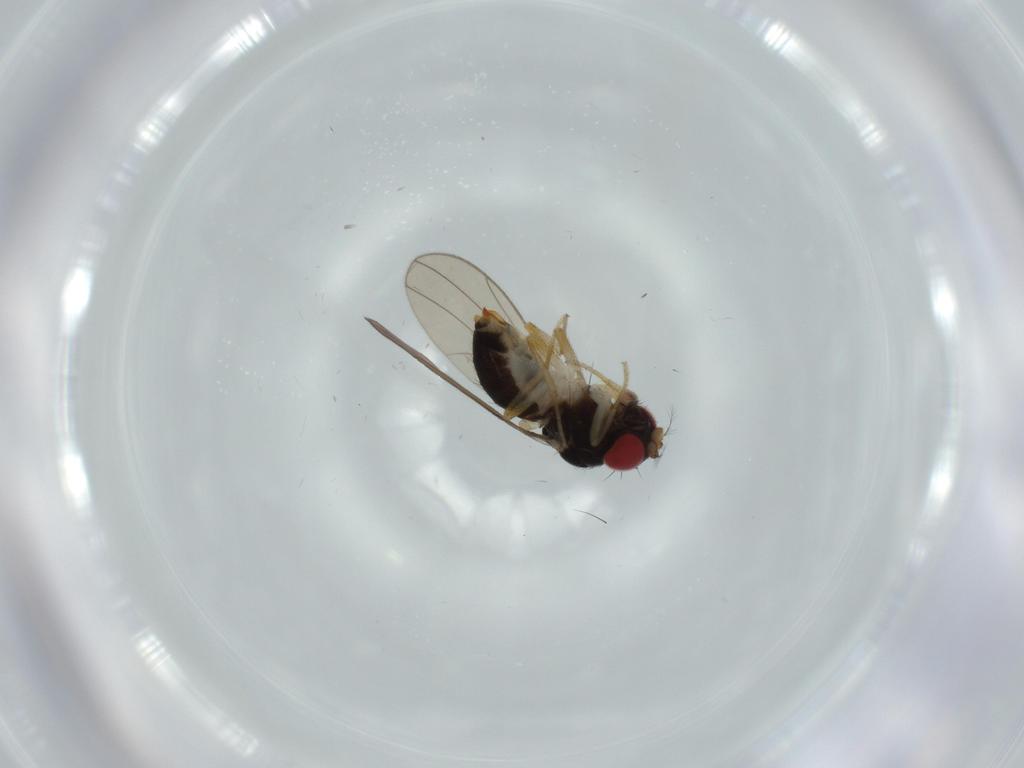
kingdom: Animalia
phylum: Arthropoda
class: Insecta
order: Diptera
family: Drosophilidae
